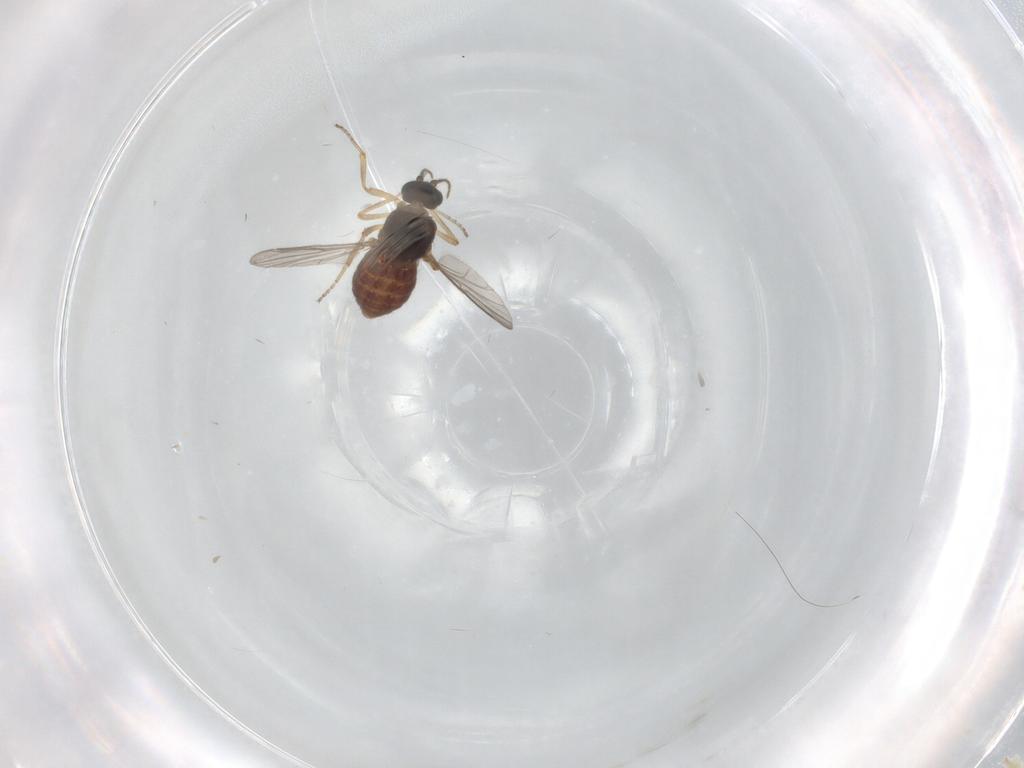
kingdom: Animalia
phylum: Arthropoda
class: Insecta
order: Diptera
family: Ceratopogonidae
